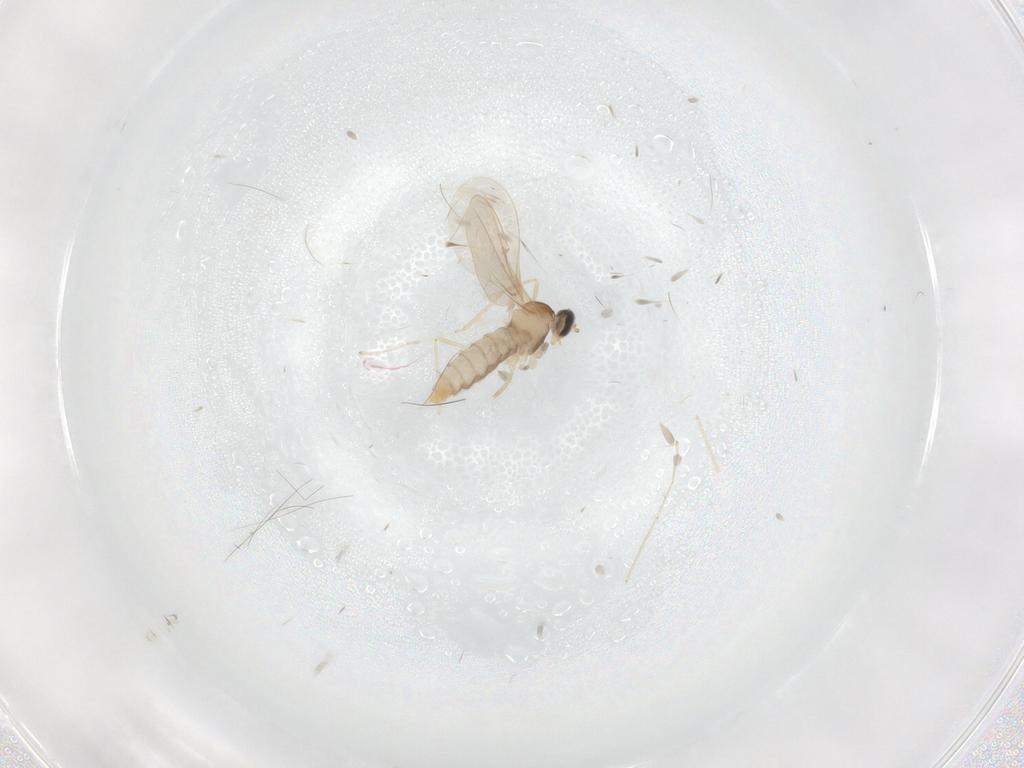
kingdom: Animalia
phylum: Arthropoda
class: Insecta
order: Diptera
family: Cecidomyiidae
